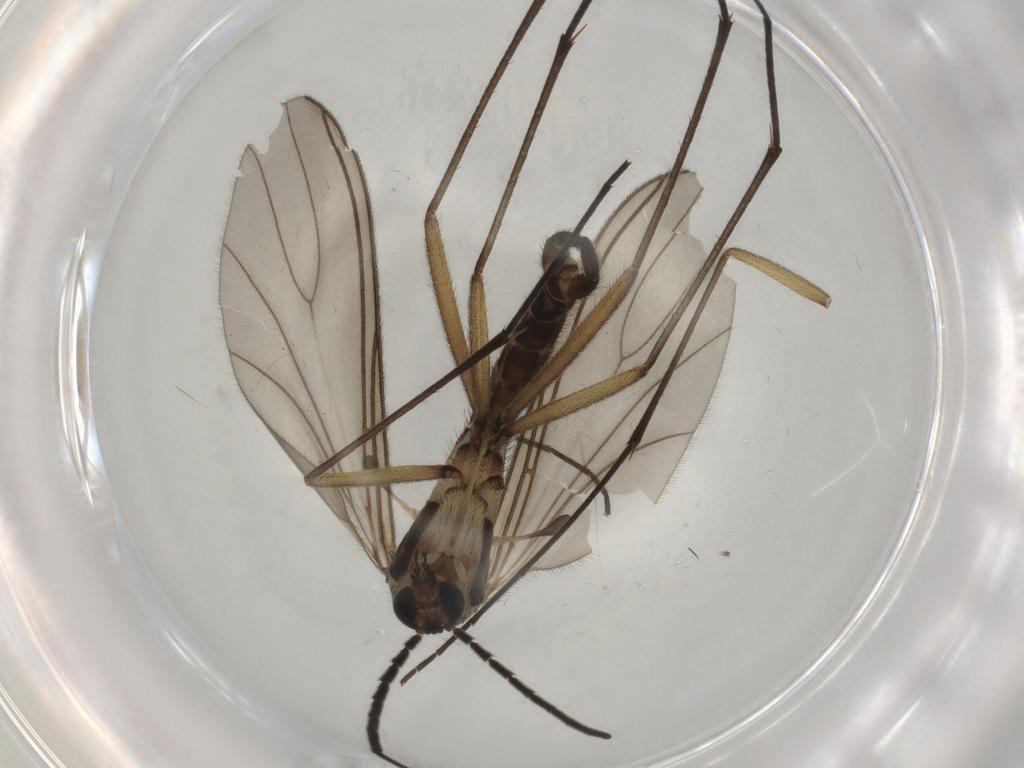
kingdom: Animalia
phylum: Arthropoda
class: Insecta
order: Diptera
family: Sciaridae
